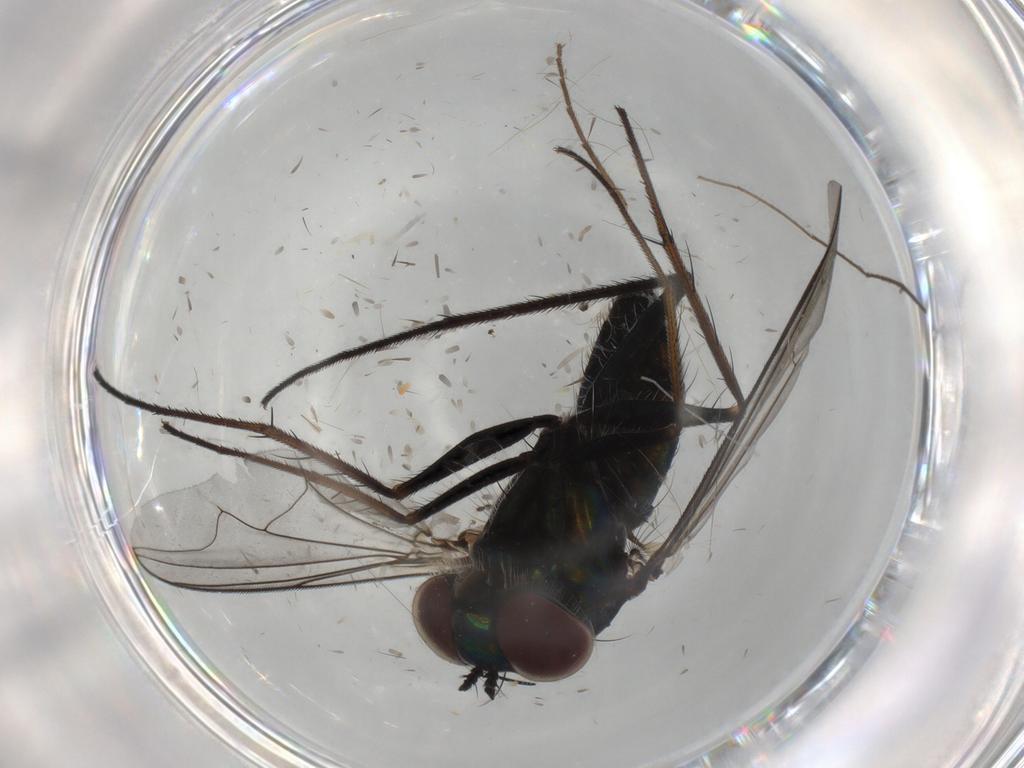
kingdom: Animalia
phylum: Arthropoda
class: Insecta
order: Diptera
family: Dolichopodidae
